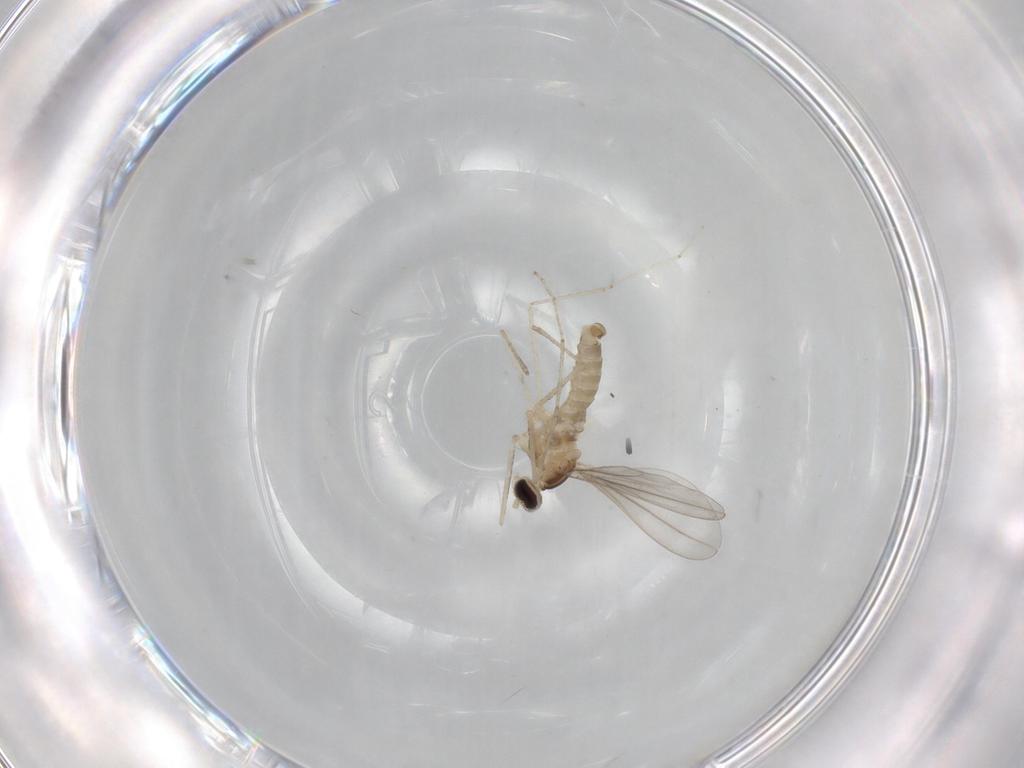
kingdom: Animalia
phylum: Arthropoda
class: Insecta
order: Diptera
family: Cecidomyiidae
